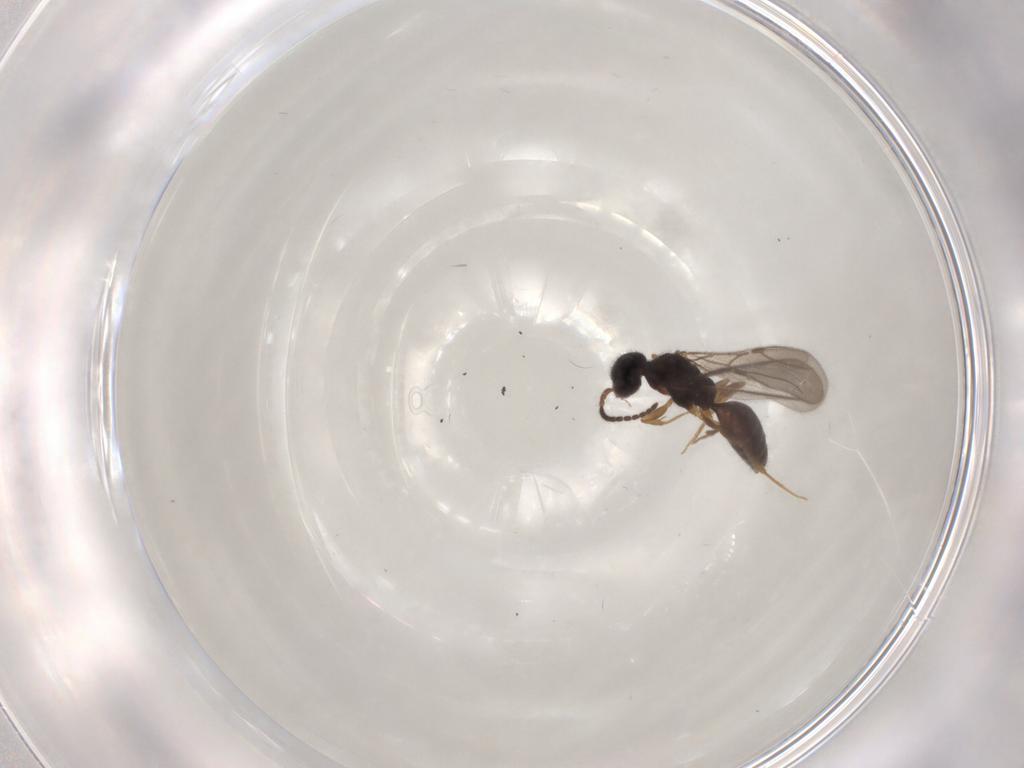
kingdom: Animalia
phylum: Arthropoda
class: Insecta
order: Hymenoptera
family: Bethylidae
